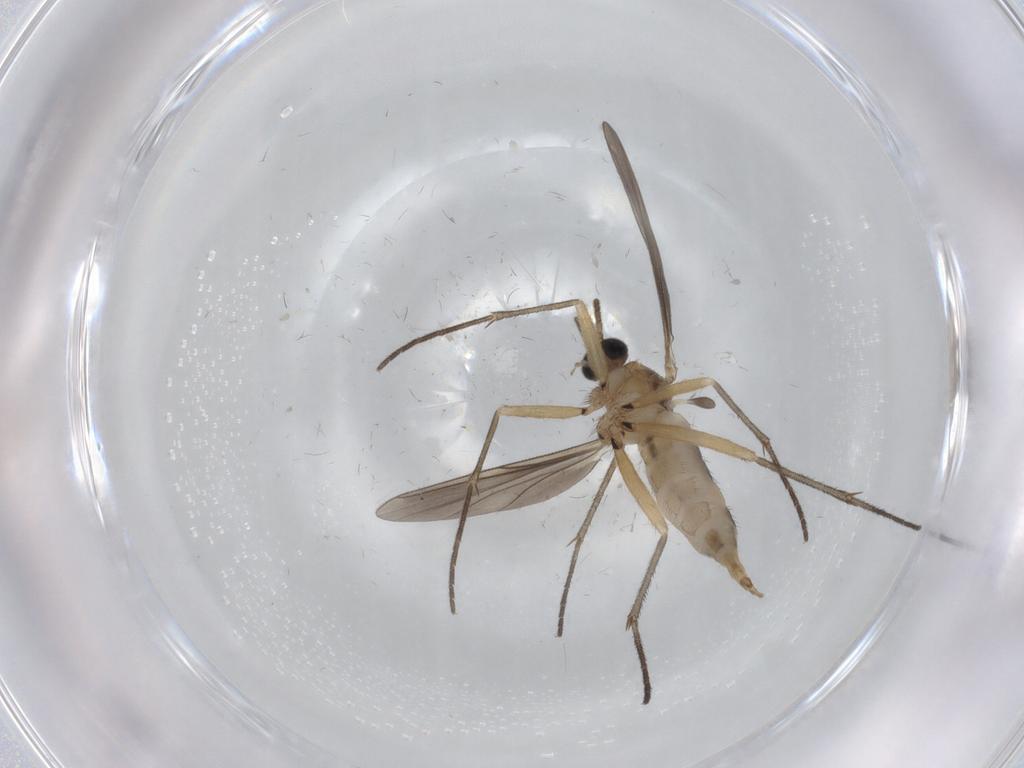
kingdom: Animalia
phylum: Arthropoda
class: Insecta
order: Diptera
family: Sciaridae
